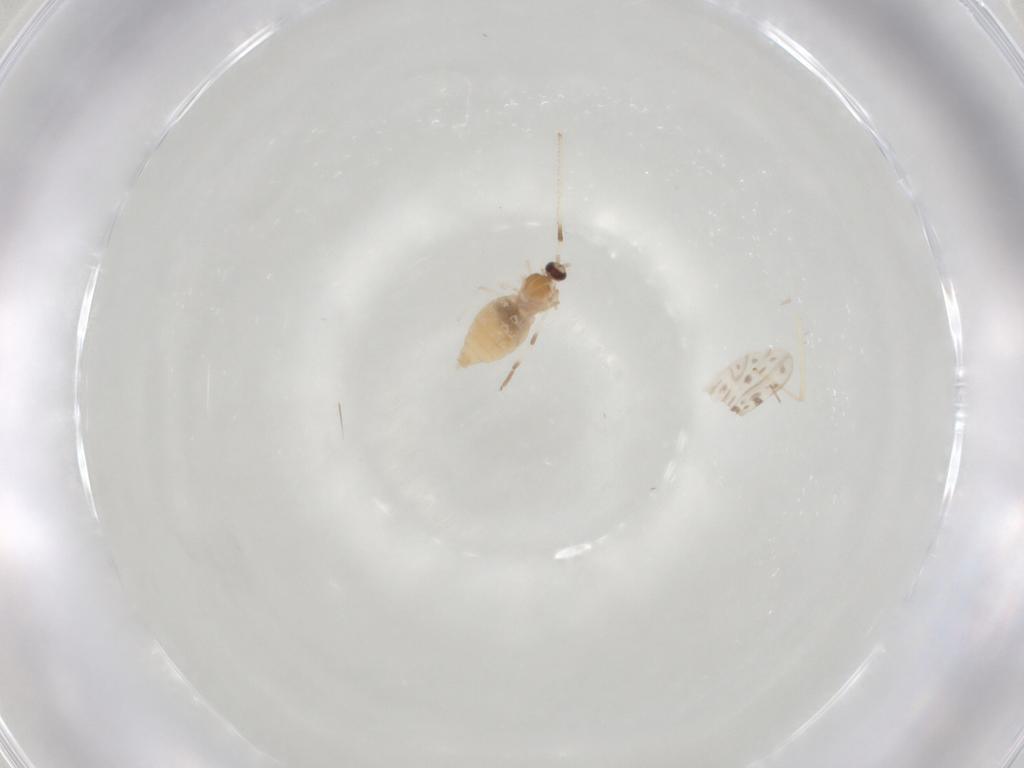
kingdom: Animalia
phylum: Arthropoda
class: Insecta
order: Diptera
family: Cecidomyiidae
